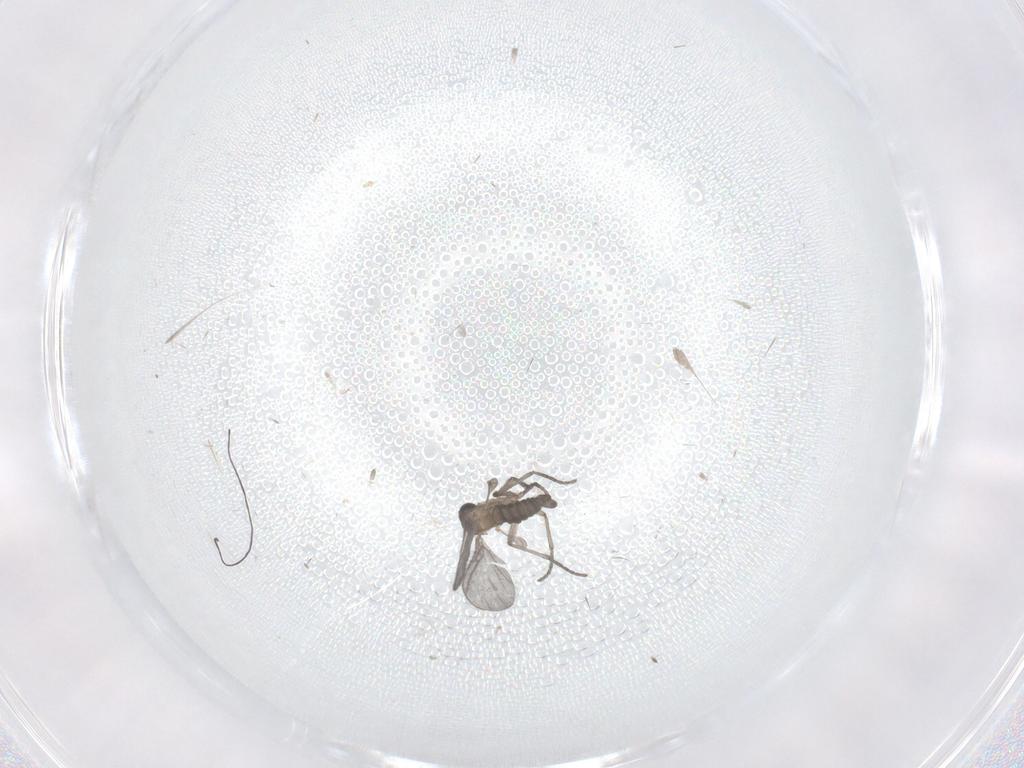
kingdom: Animalia
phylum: Arthropoda
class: Insecta
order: Diptera
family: Sciaridae
